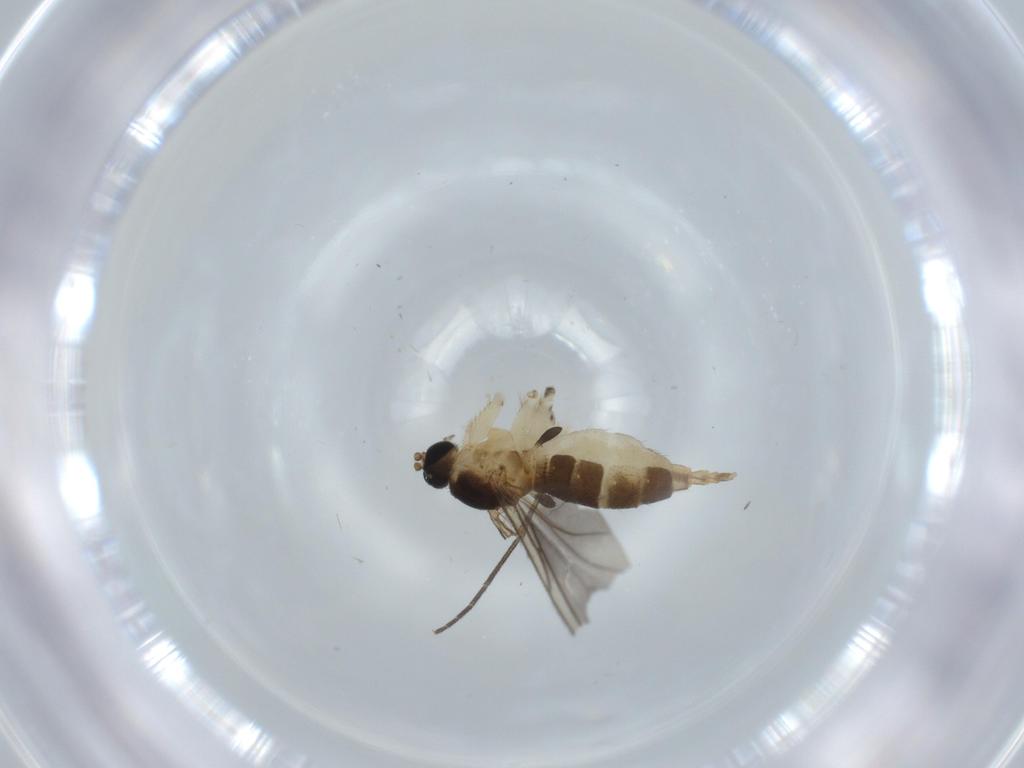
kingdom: Animalia
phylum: Arthropoda
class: Insecta
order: Diptera
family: Sciaridae
